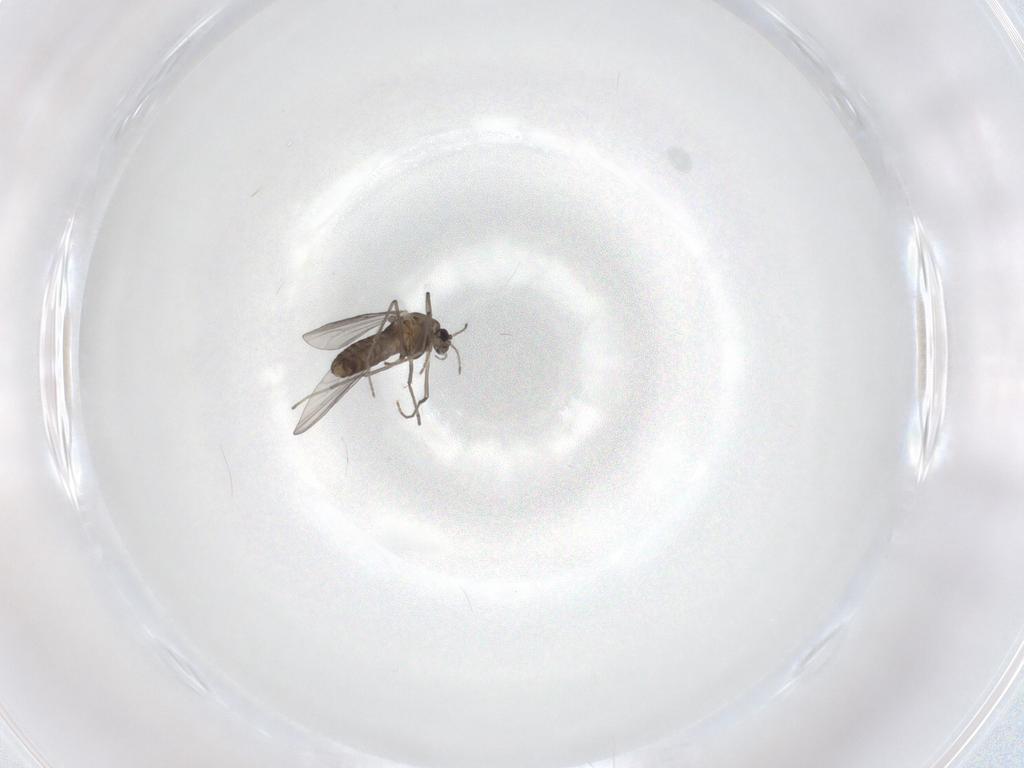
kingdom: Animalia
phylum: Arthropoda
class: Insecta
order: Diptera
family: Chironomidae
